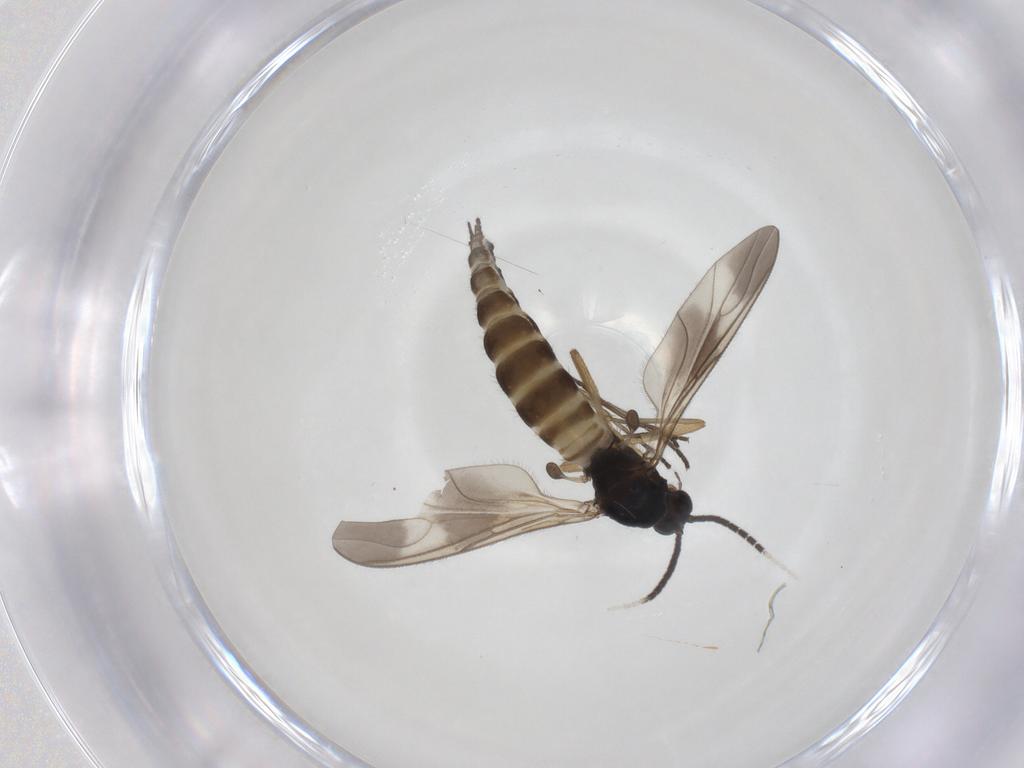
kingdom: Animalia
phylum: Arthropoda
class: Insecta
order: Diptera
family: Sciaridae
